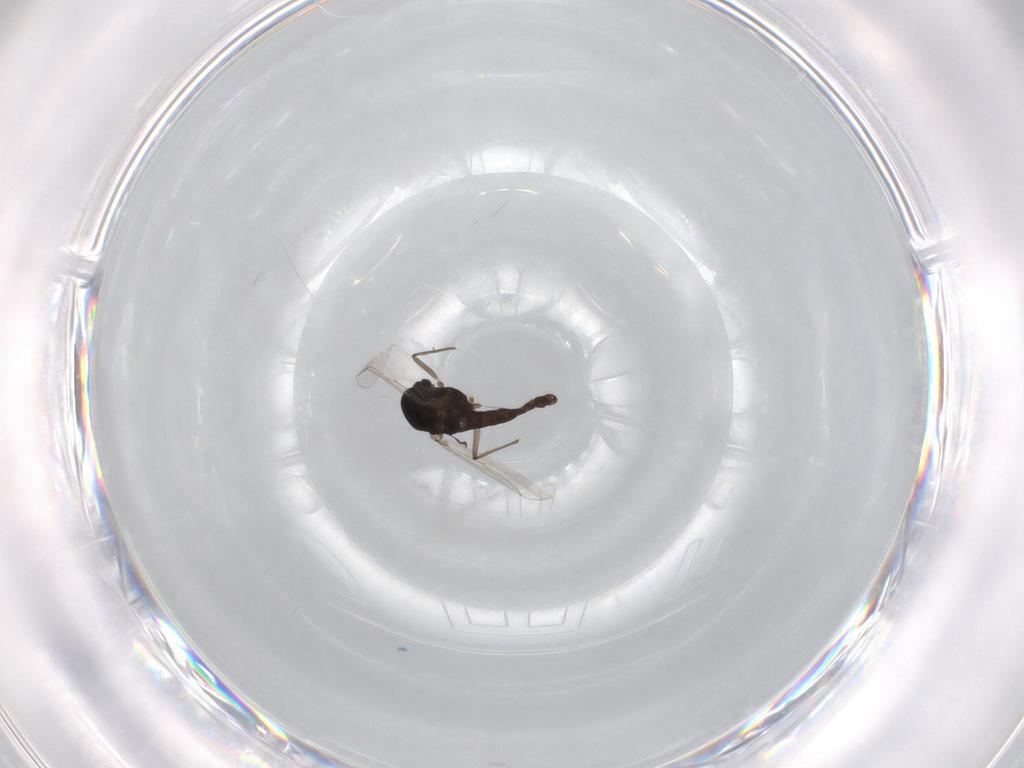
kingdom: Animalia
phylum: Arthropoda
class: Insecta
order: Diptera
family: Chironomidae
